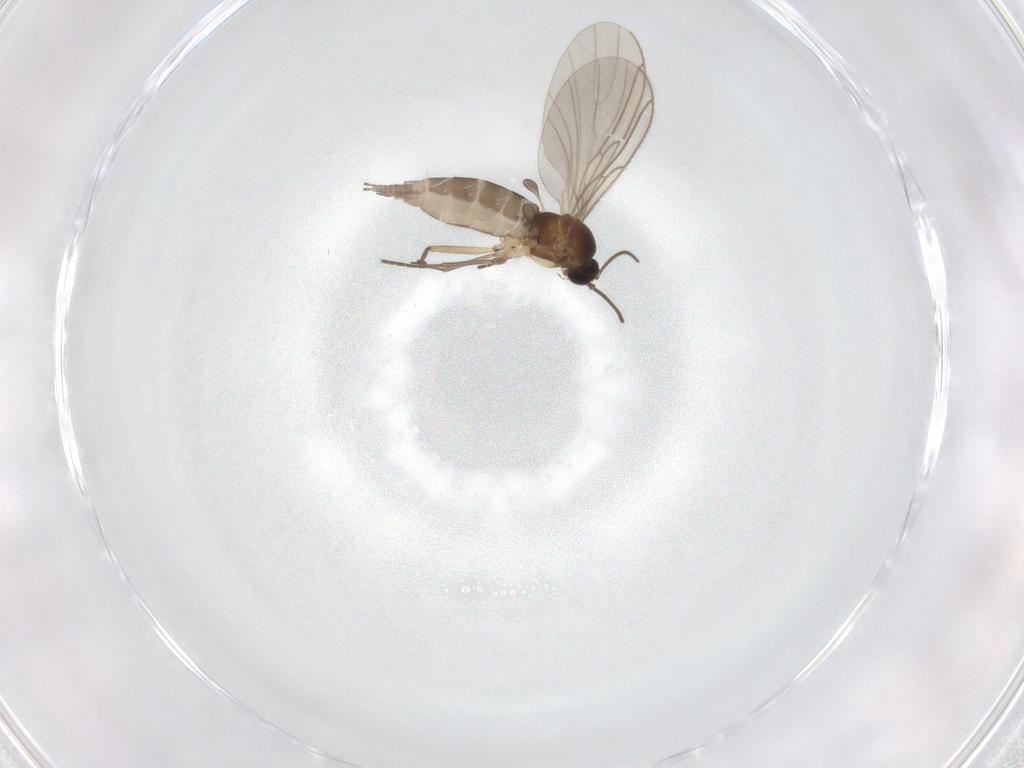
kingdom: Animalia
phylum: Arthropoda
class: Insecta
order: Diptera
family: Sciaridae
